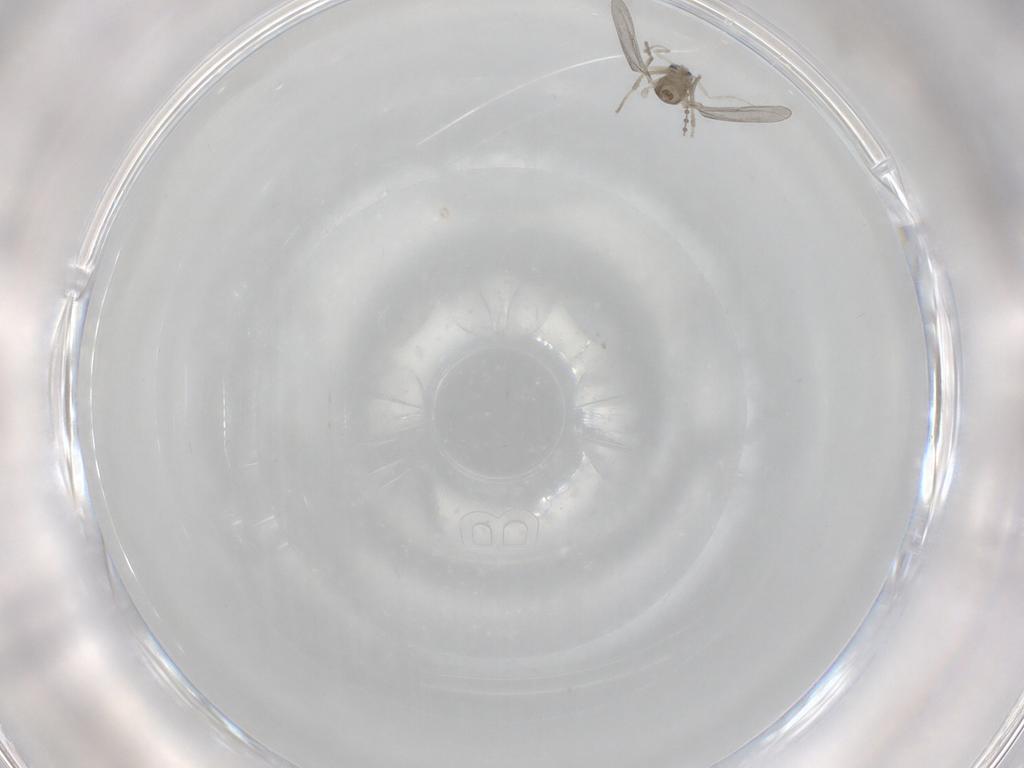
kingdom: Animalia
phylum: Arthropoda
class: Insecta
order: Diptera
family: Cecidomyiidae
